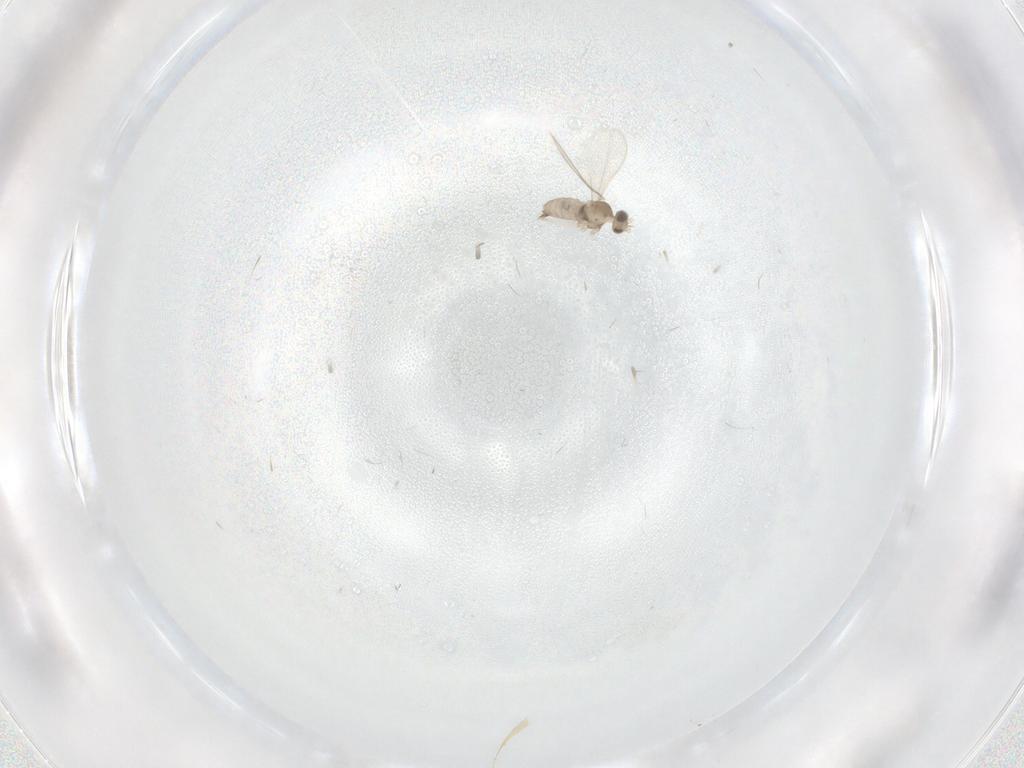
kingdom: Animalia
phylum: Arthropoda
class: Insecta
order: Diptera
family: Cecidomyiidae
